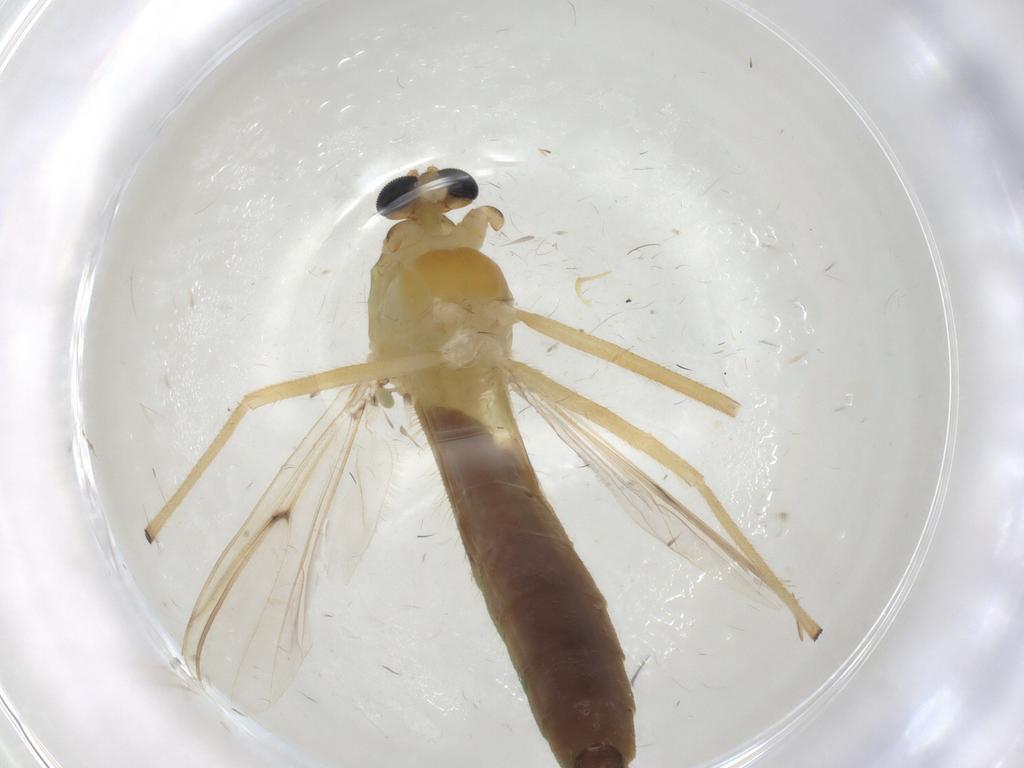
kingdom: Animalia
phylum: Arthropoda
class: Insecta
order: Diptera
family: Chironomidae
